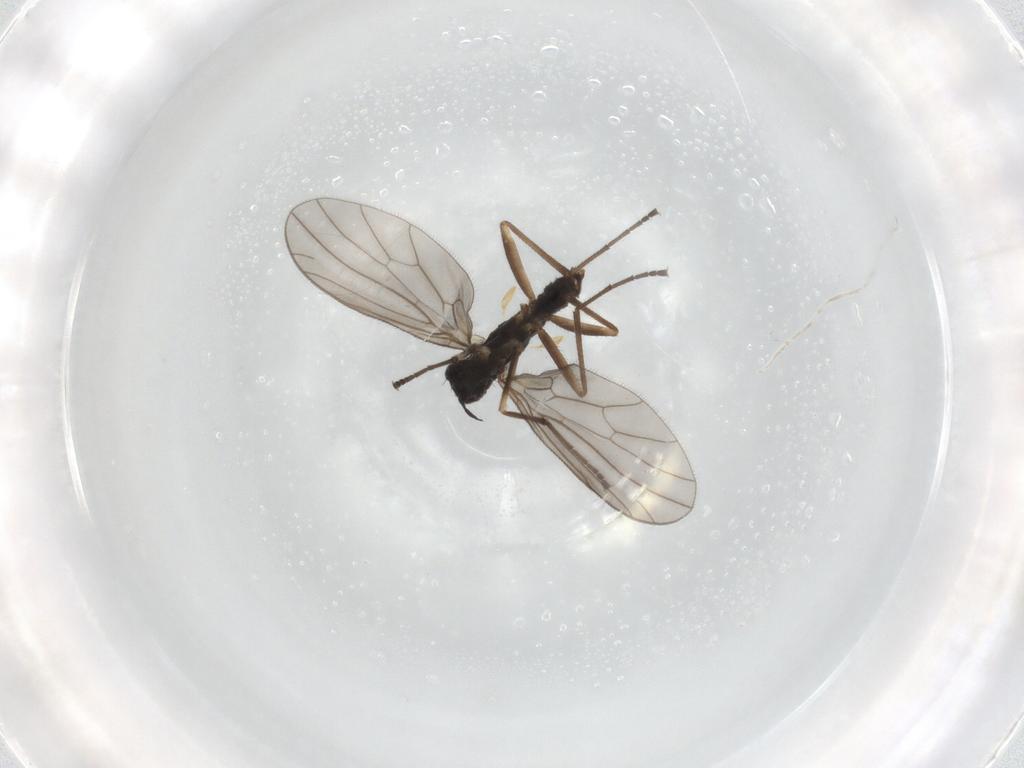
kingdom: Animalia
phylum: Arthropoda
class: Insecta
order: Diptera
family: Empididae
